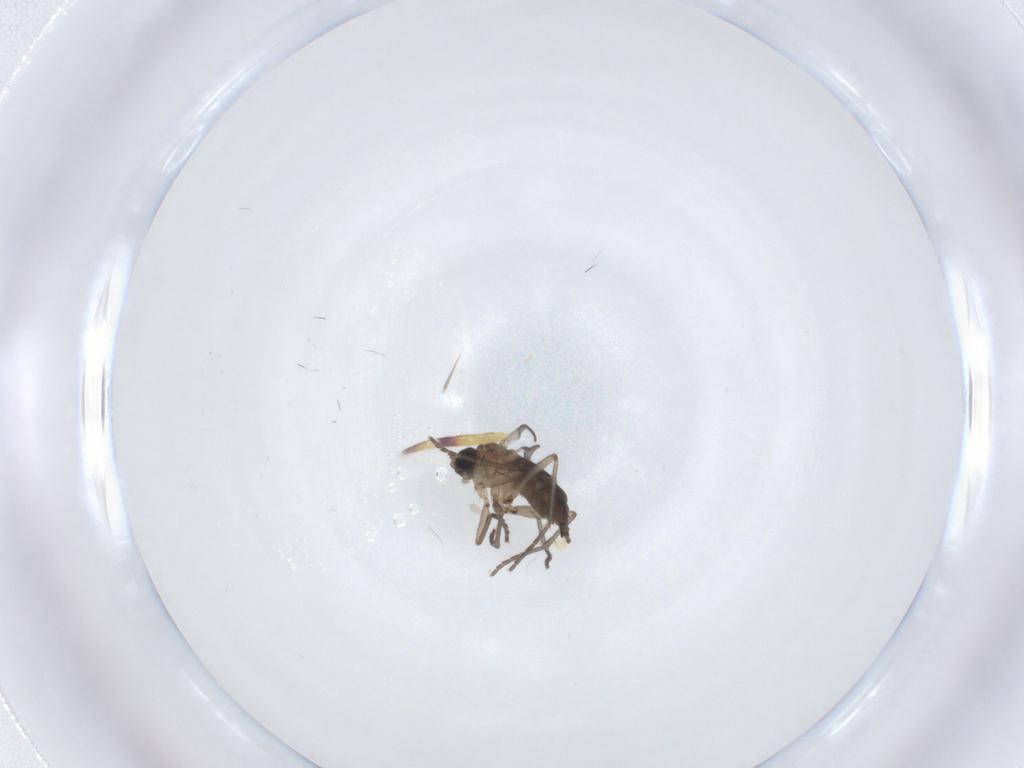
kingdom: Animalia
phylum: Arthropoda
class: Insecta
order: Diptera
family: Sciaridae
